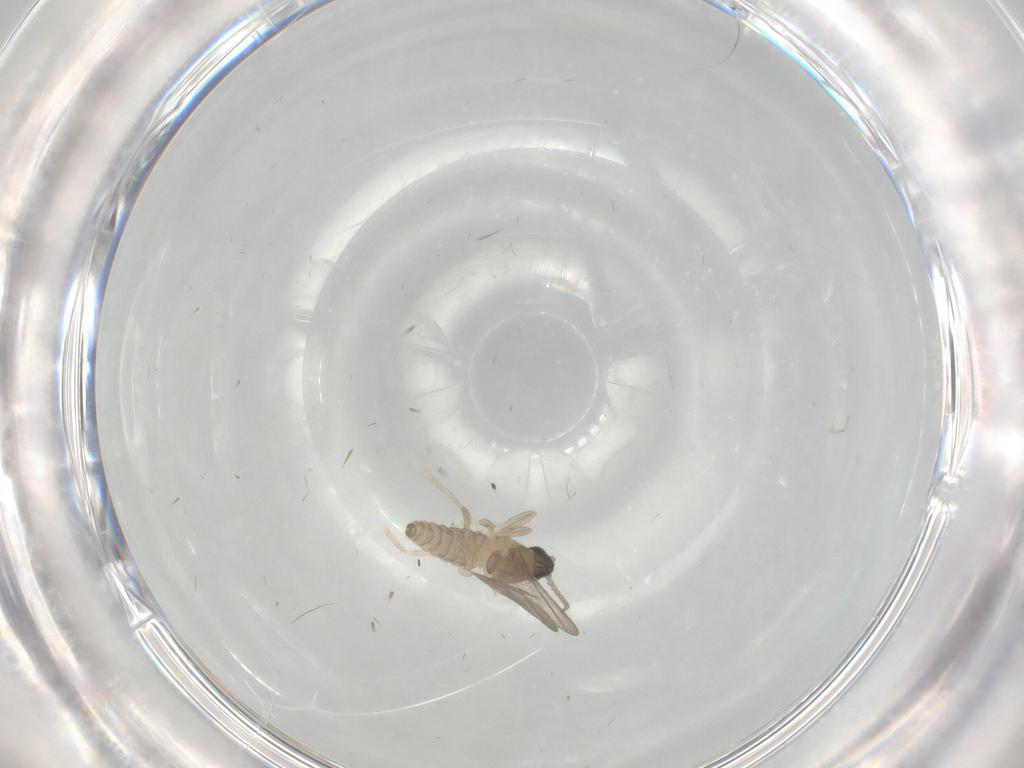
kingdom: Animalia
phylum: Arthropoda
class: Insecta
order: Diptera
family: Cecidomyiidae
